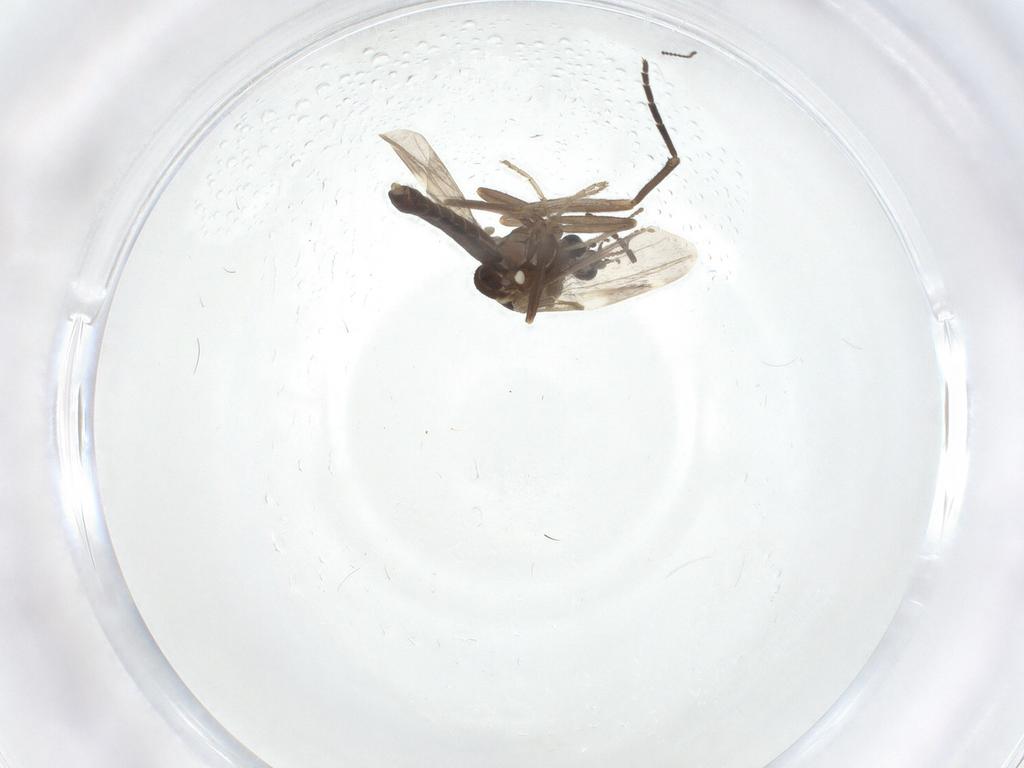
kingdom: Animalia
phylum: Arthropoda
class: Insecta
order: Diptera
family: Ceratopogonidae
